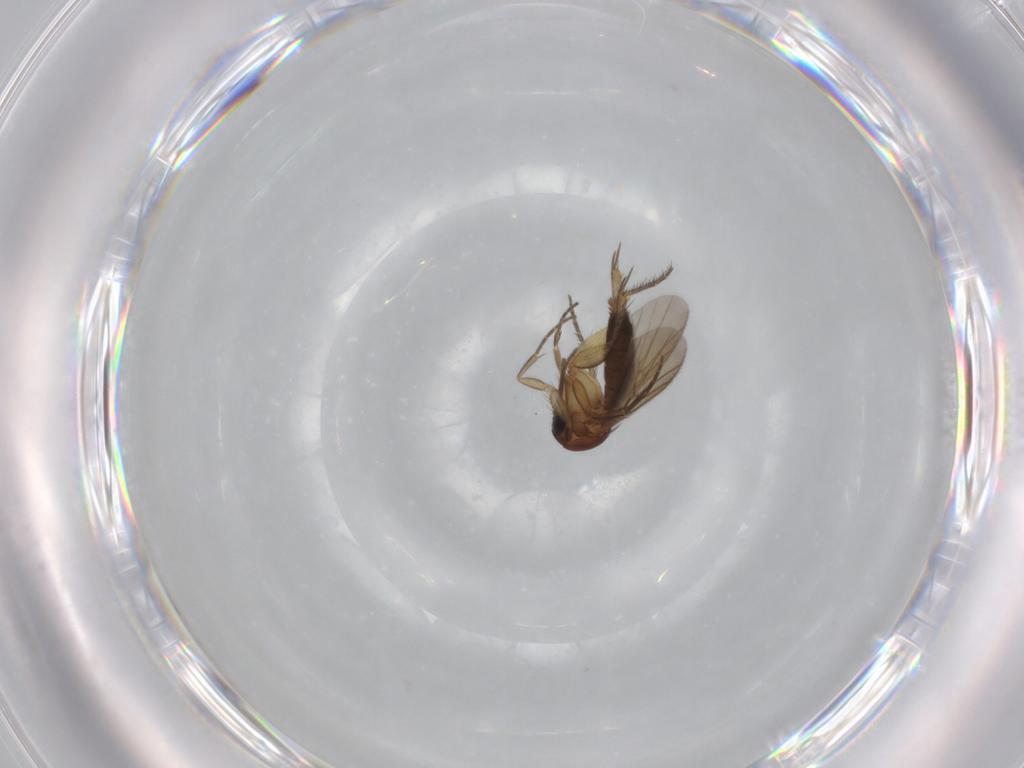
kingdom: Animalia
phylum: Arthropoda
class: Insecta
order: Diptera
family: Mycetophilidae
